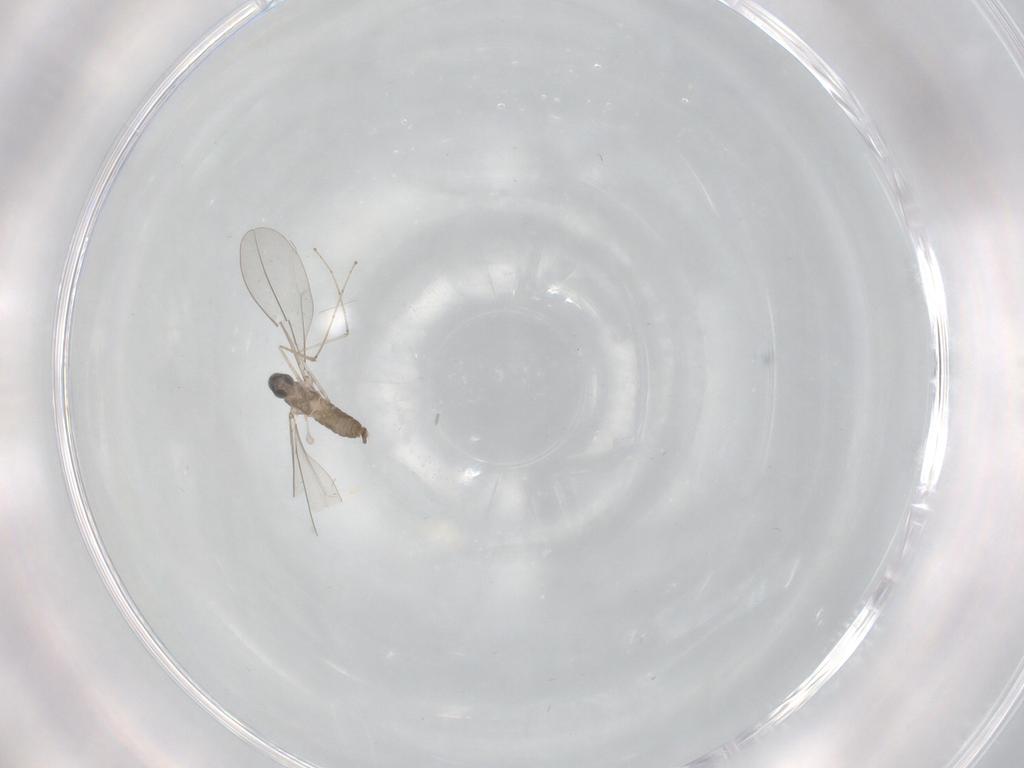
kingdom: Animalia
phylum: Arthropoda
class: Insecta
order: Diptera
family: Cecidomyiidae
